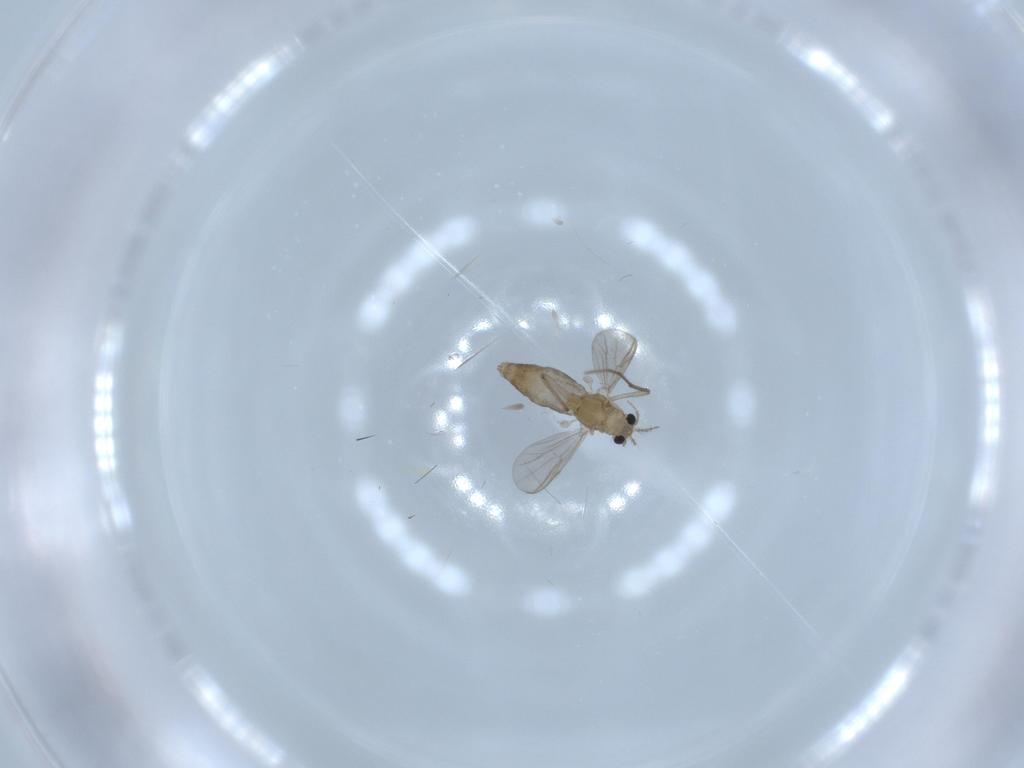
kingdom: Animalia
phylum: Arthropoda
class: Insecta
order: Diptera
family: Chironomidae
